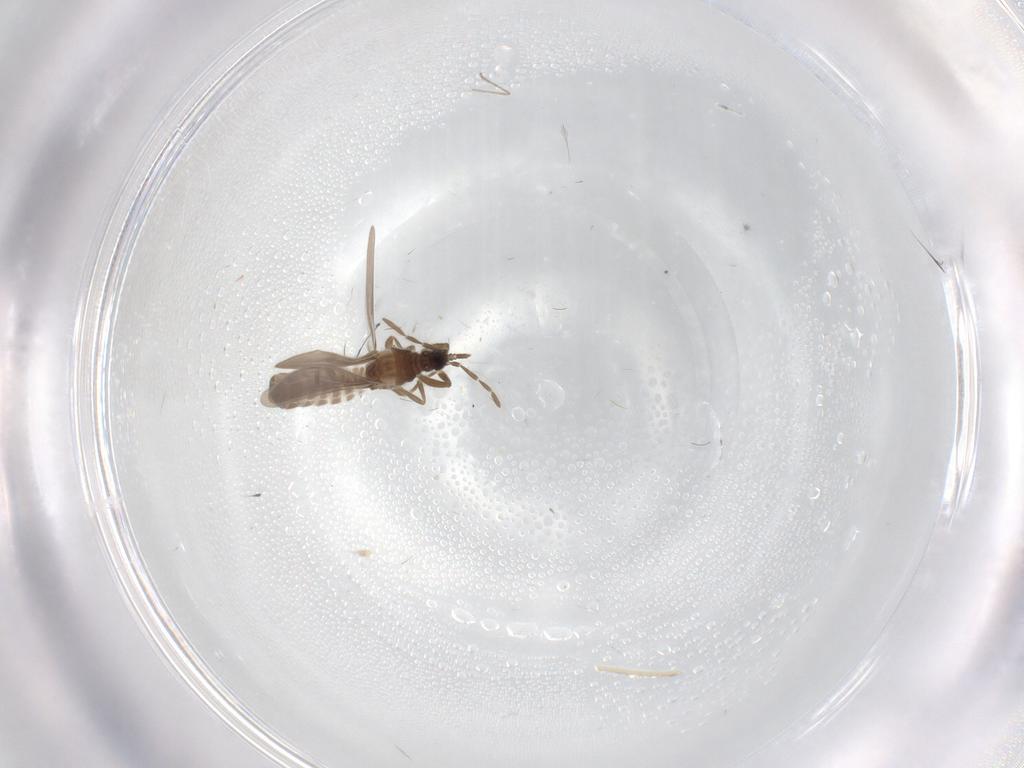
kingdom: Animalia
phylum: Arthropoda
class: Insecta
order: Hemiptera
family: Enicocephalidae
